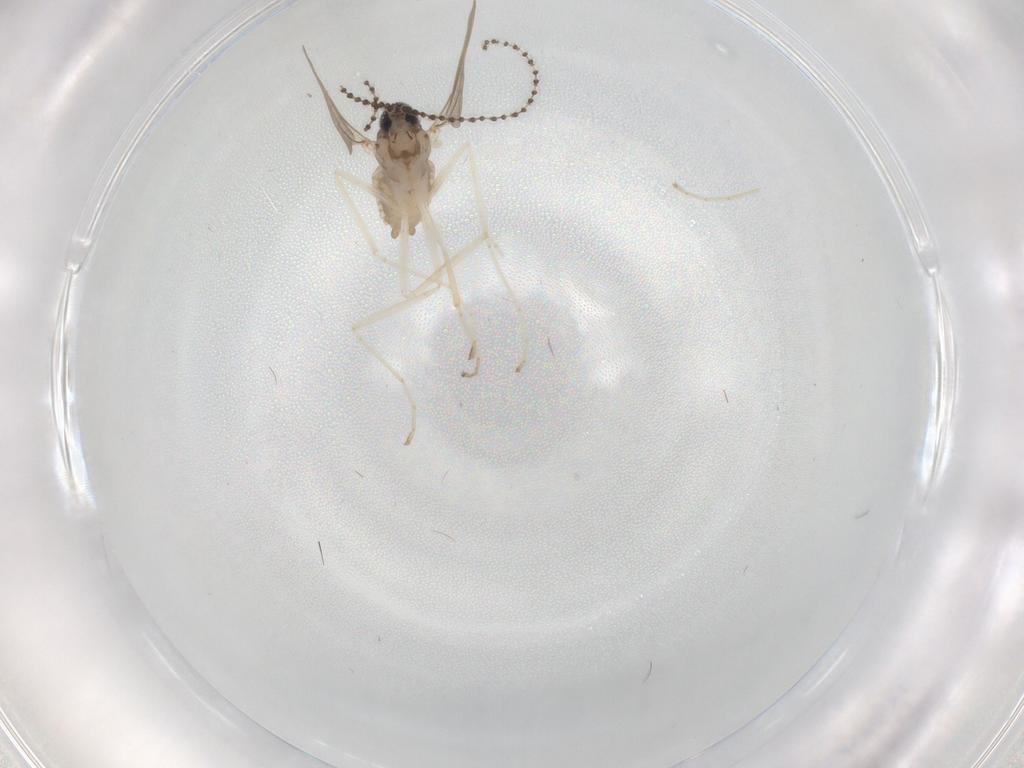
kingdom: Animalia
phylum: Arthropoda
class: Insecta
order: Diptera
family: Cecidomyiidae
